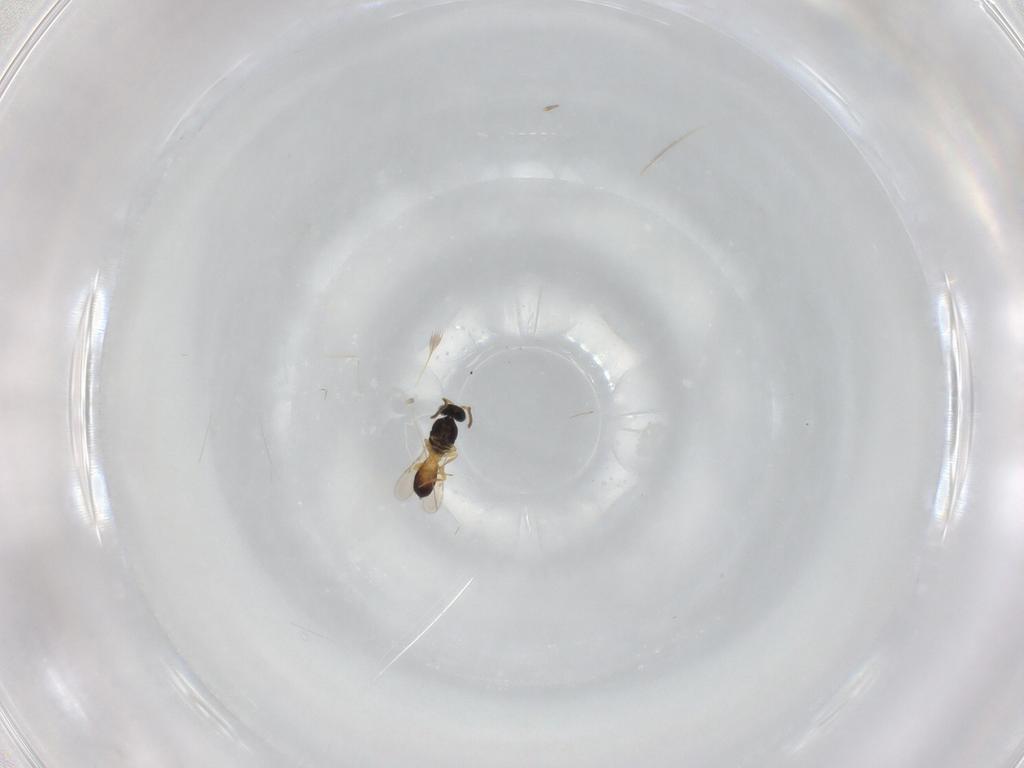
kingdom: Animalia
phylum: Arthropoda
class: Insecta
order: Hymenoptera
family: Scelionidae
